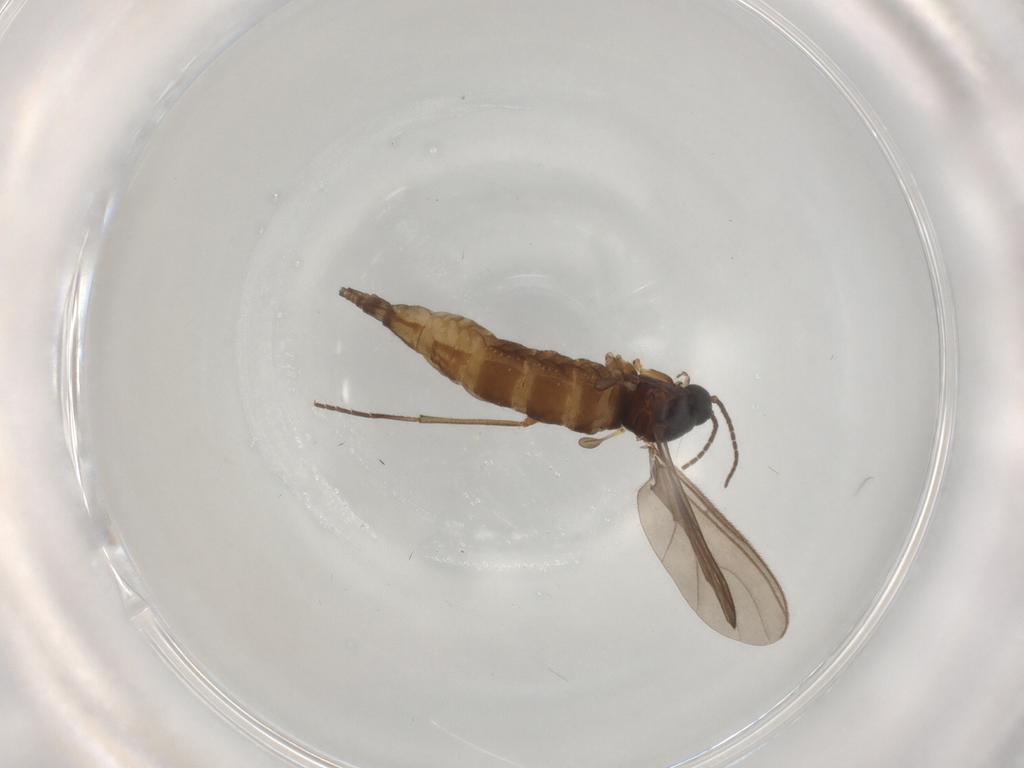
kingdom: Animalia
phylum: Arthropoda
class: Insecta
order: Diptera
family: Sciaridae
